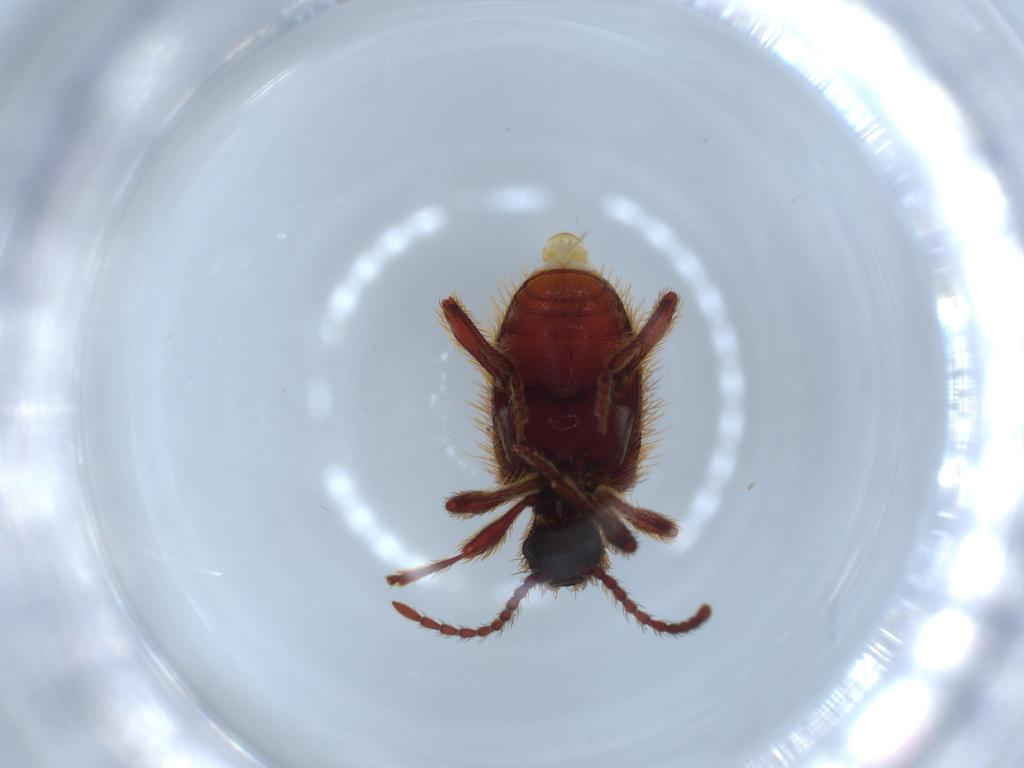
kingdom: Animalia
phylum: Arthropoda
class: Insecta
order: Coleoptera
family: Ptinidae
